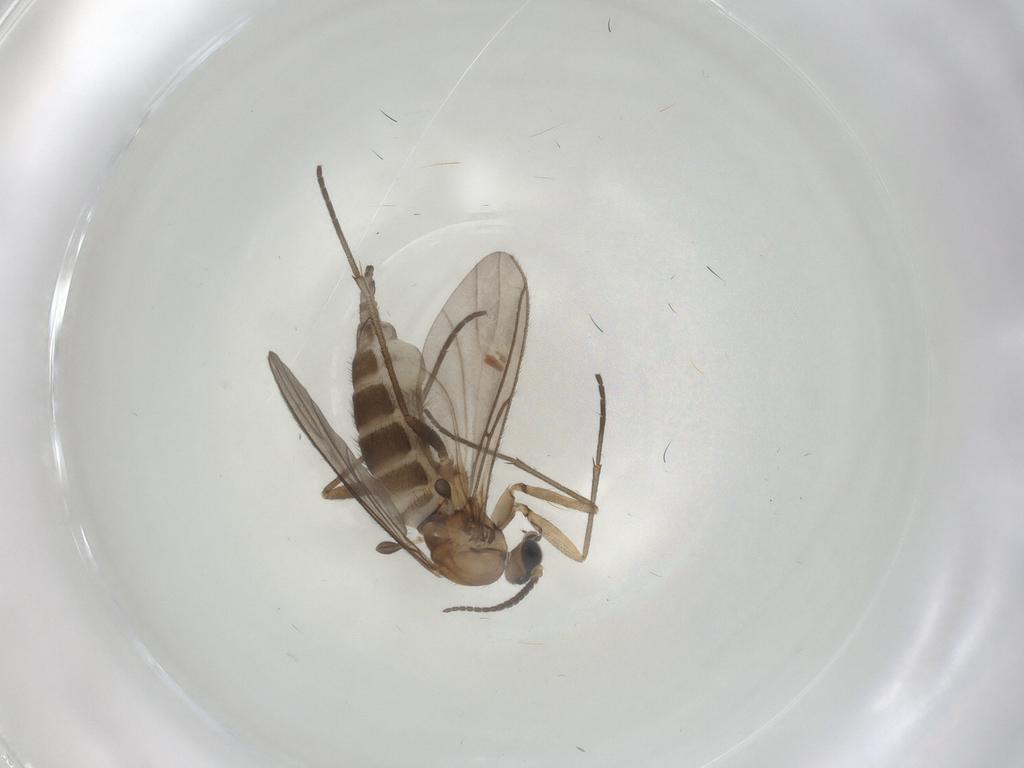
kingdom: Animalia
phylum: Arthropoda
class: Insecta
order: Diptera
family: Sciaridae
